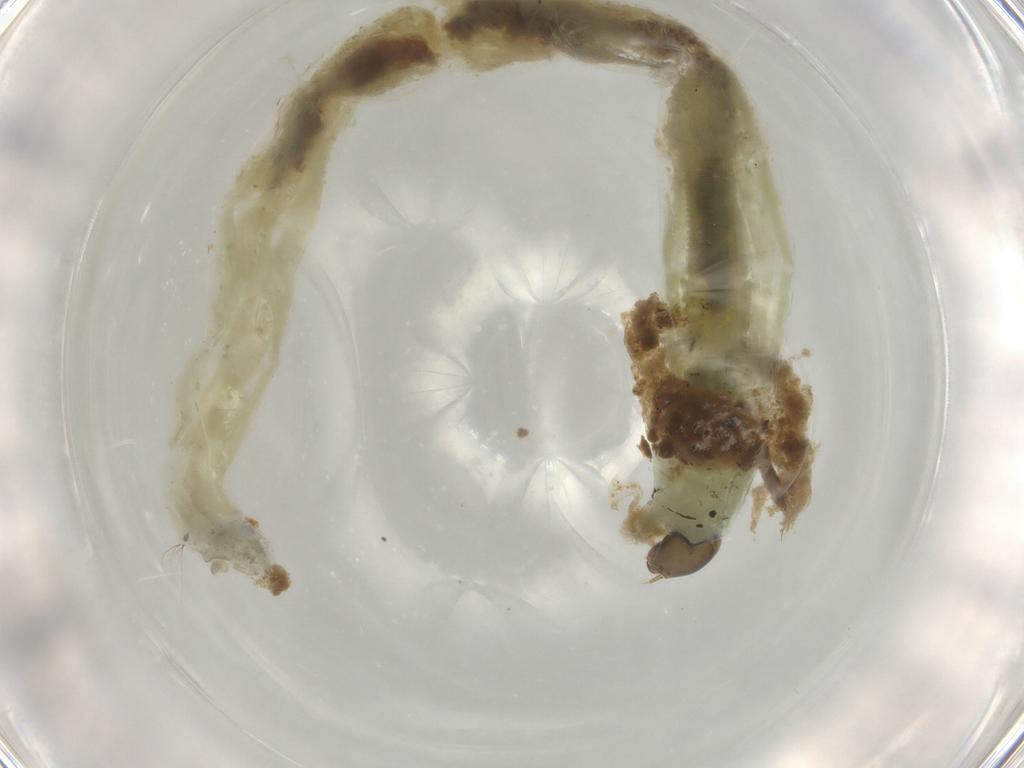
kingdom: Animalia
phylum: Arthropoda
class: Insecta
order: Diptera
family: Chironomidae
